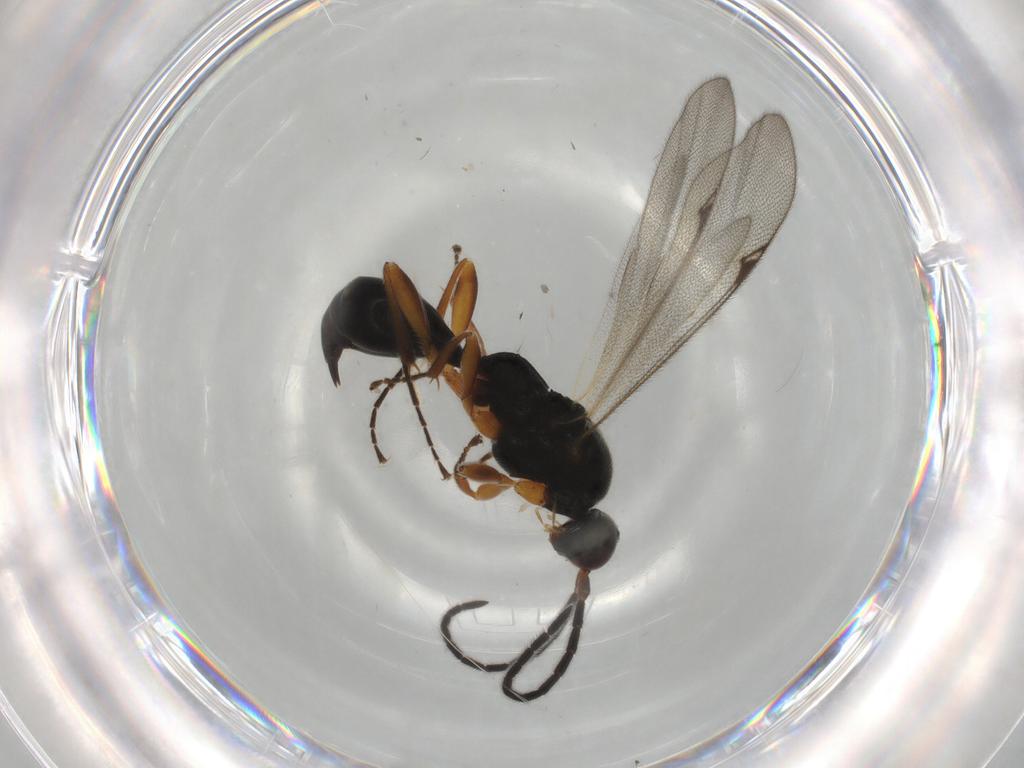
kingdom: Animalia
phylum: Arthropoda
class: Insecta
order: Hymenoptera
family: Proctotrupidae
